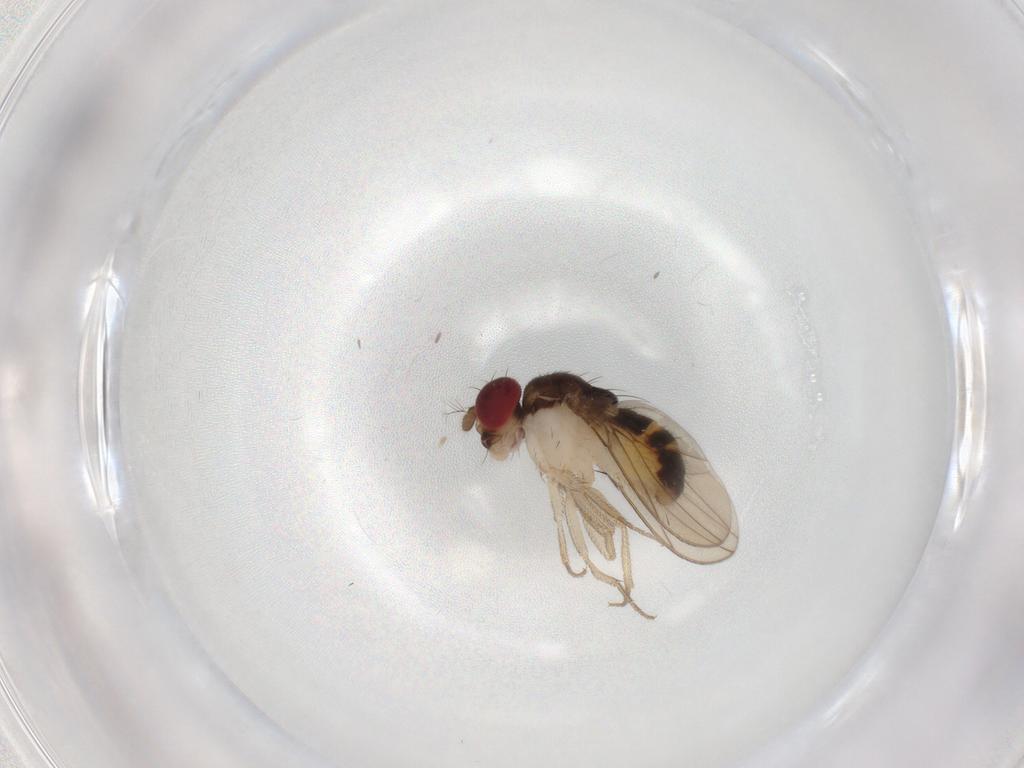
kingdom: Animalia
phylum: Arthropoda
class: Insecta
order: Diptera
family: Drosophilidae
